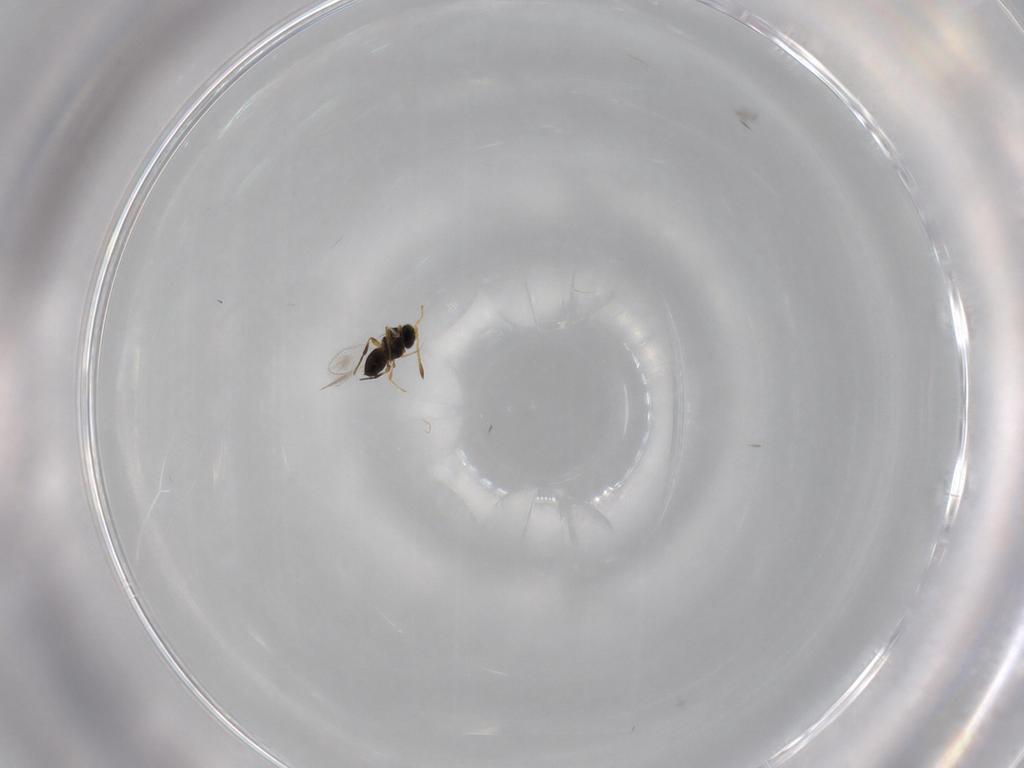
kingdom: Animalia
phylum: Arthropoda
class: Insecta
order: Hymenoptera
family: Platygastridae
